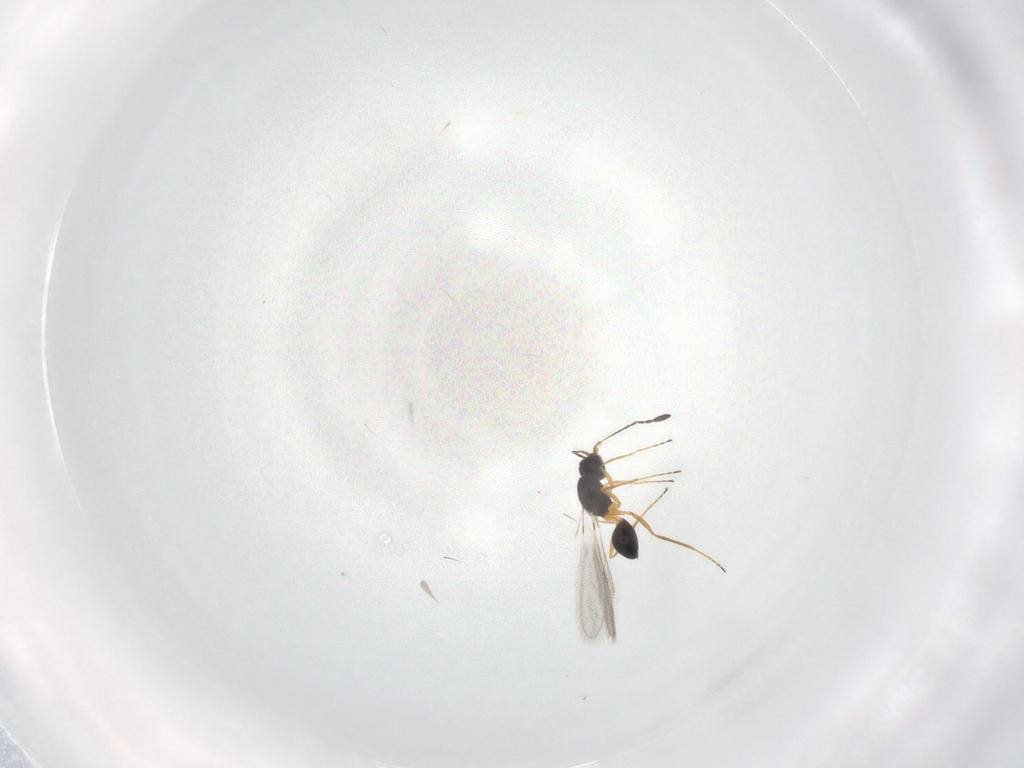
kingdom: Animalia
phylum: Arthropoda
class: Insecta
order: Hymenoptera
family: Mymaridae
